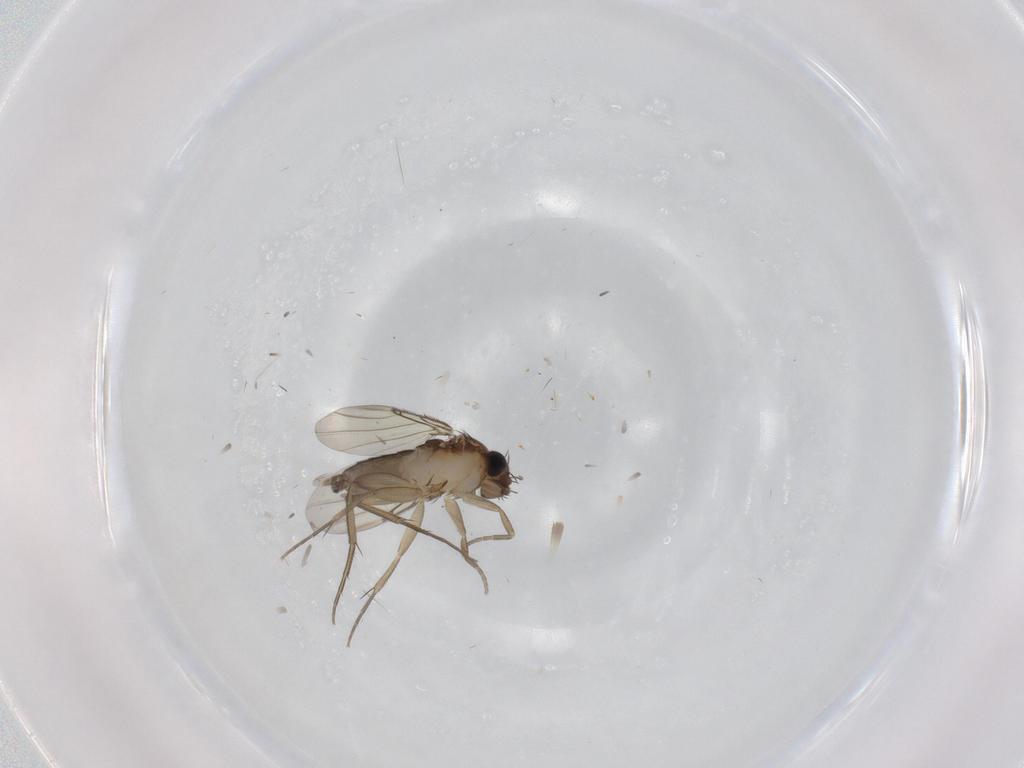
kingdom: Animalia
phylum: Arthropoda
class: Insecta
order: Diptera
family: Phoridae
